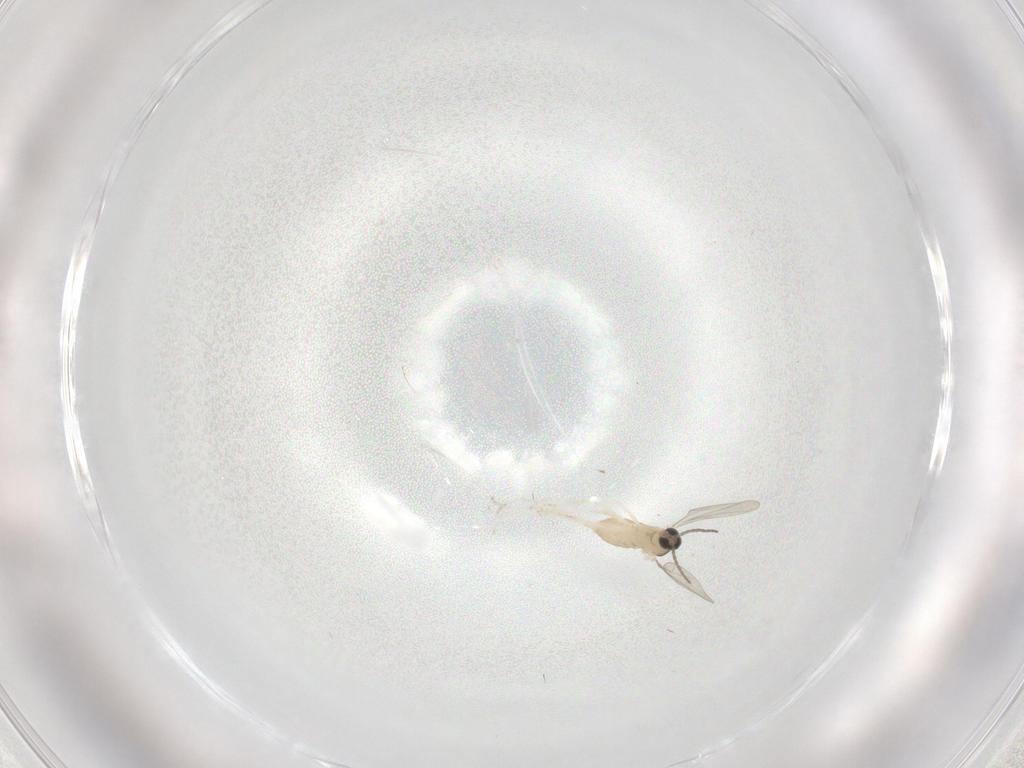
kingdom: Animalia
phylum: Arthropoda
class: Insecta
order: Diptera
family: Cecidomyiidae
